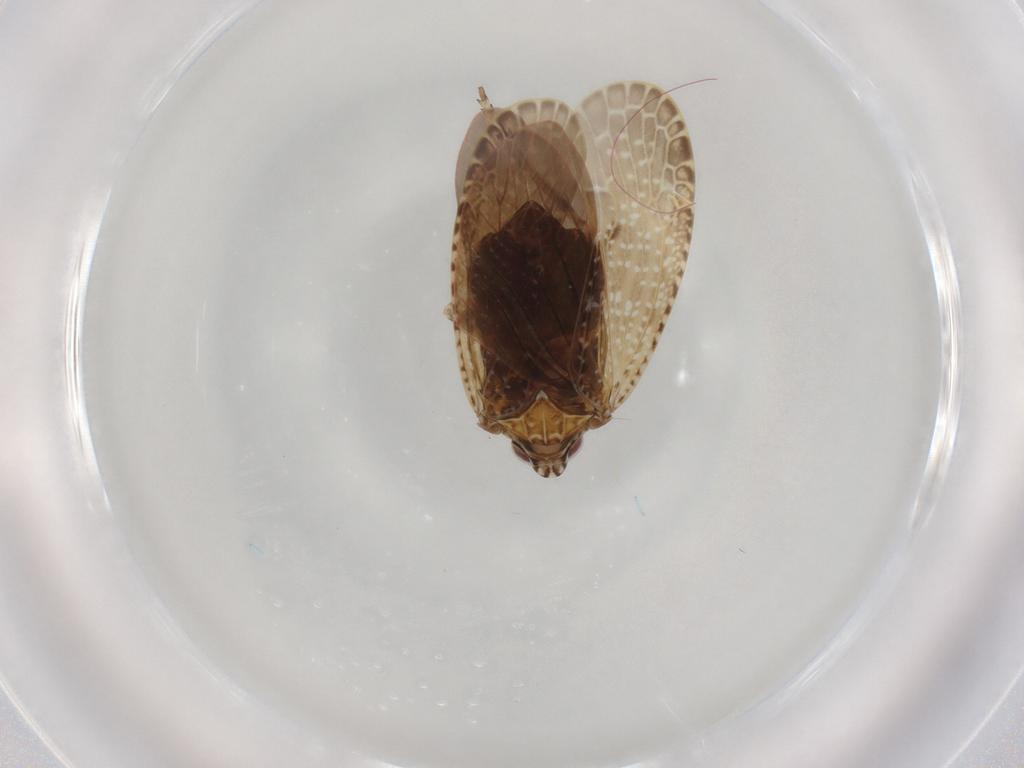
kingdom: Animalia
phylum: Arthropoda
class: Insecta
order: Hemiptera
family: Achilidae
